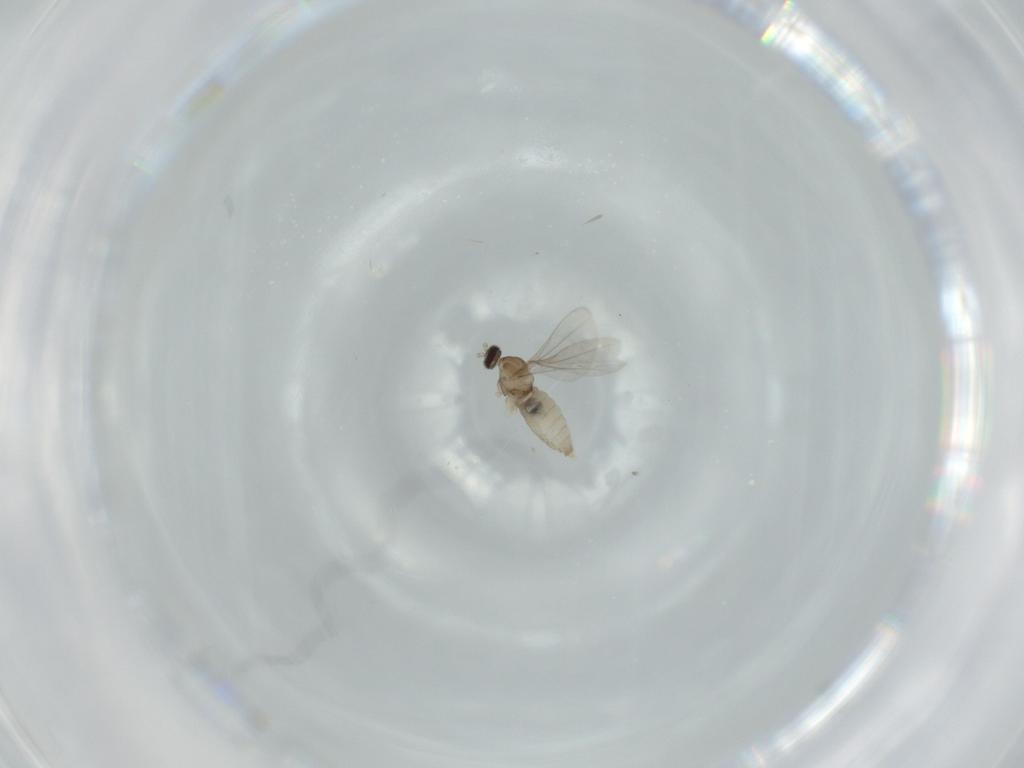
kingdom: Animalia
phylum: Arthropoda
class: Insecta
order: Diptera
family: Cecidomyiidae
